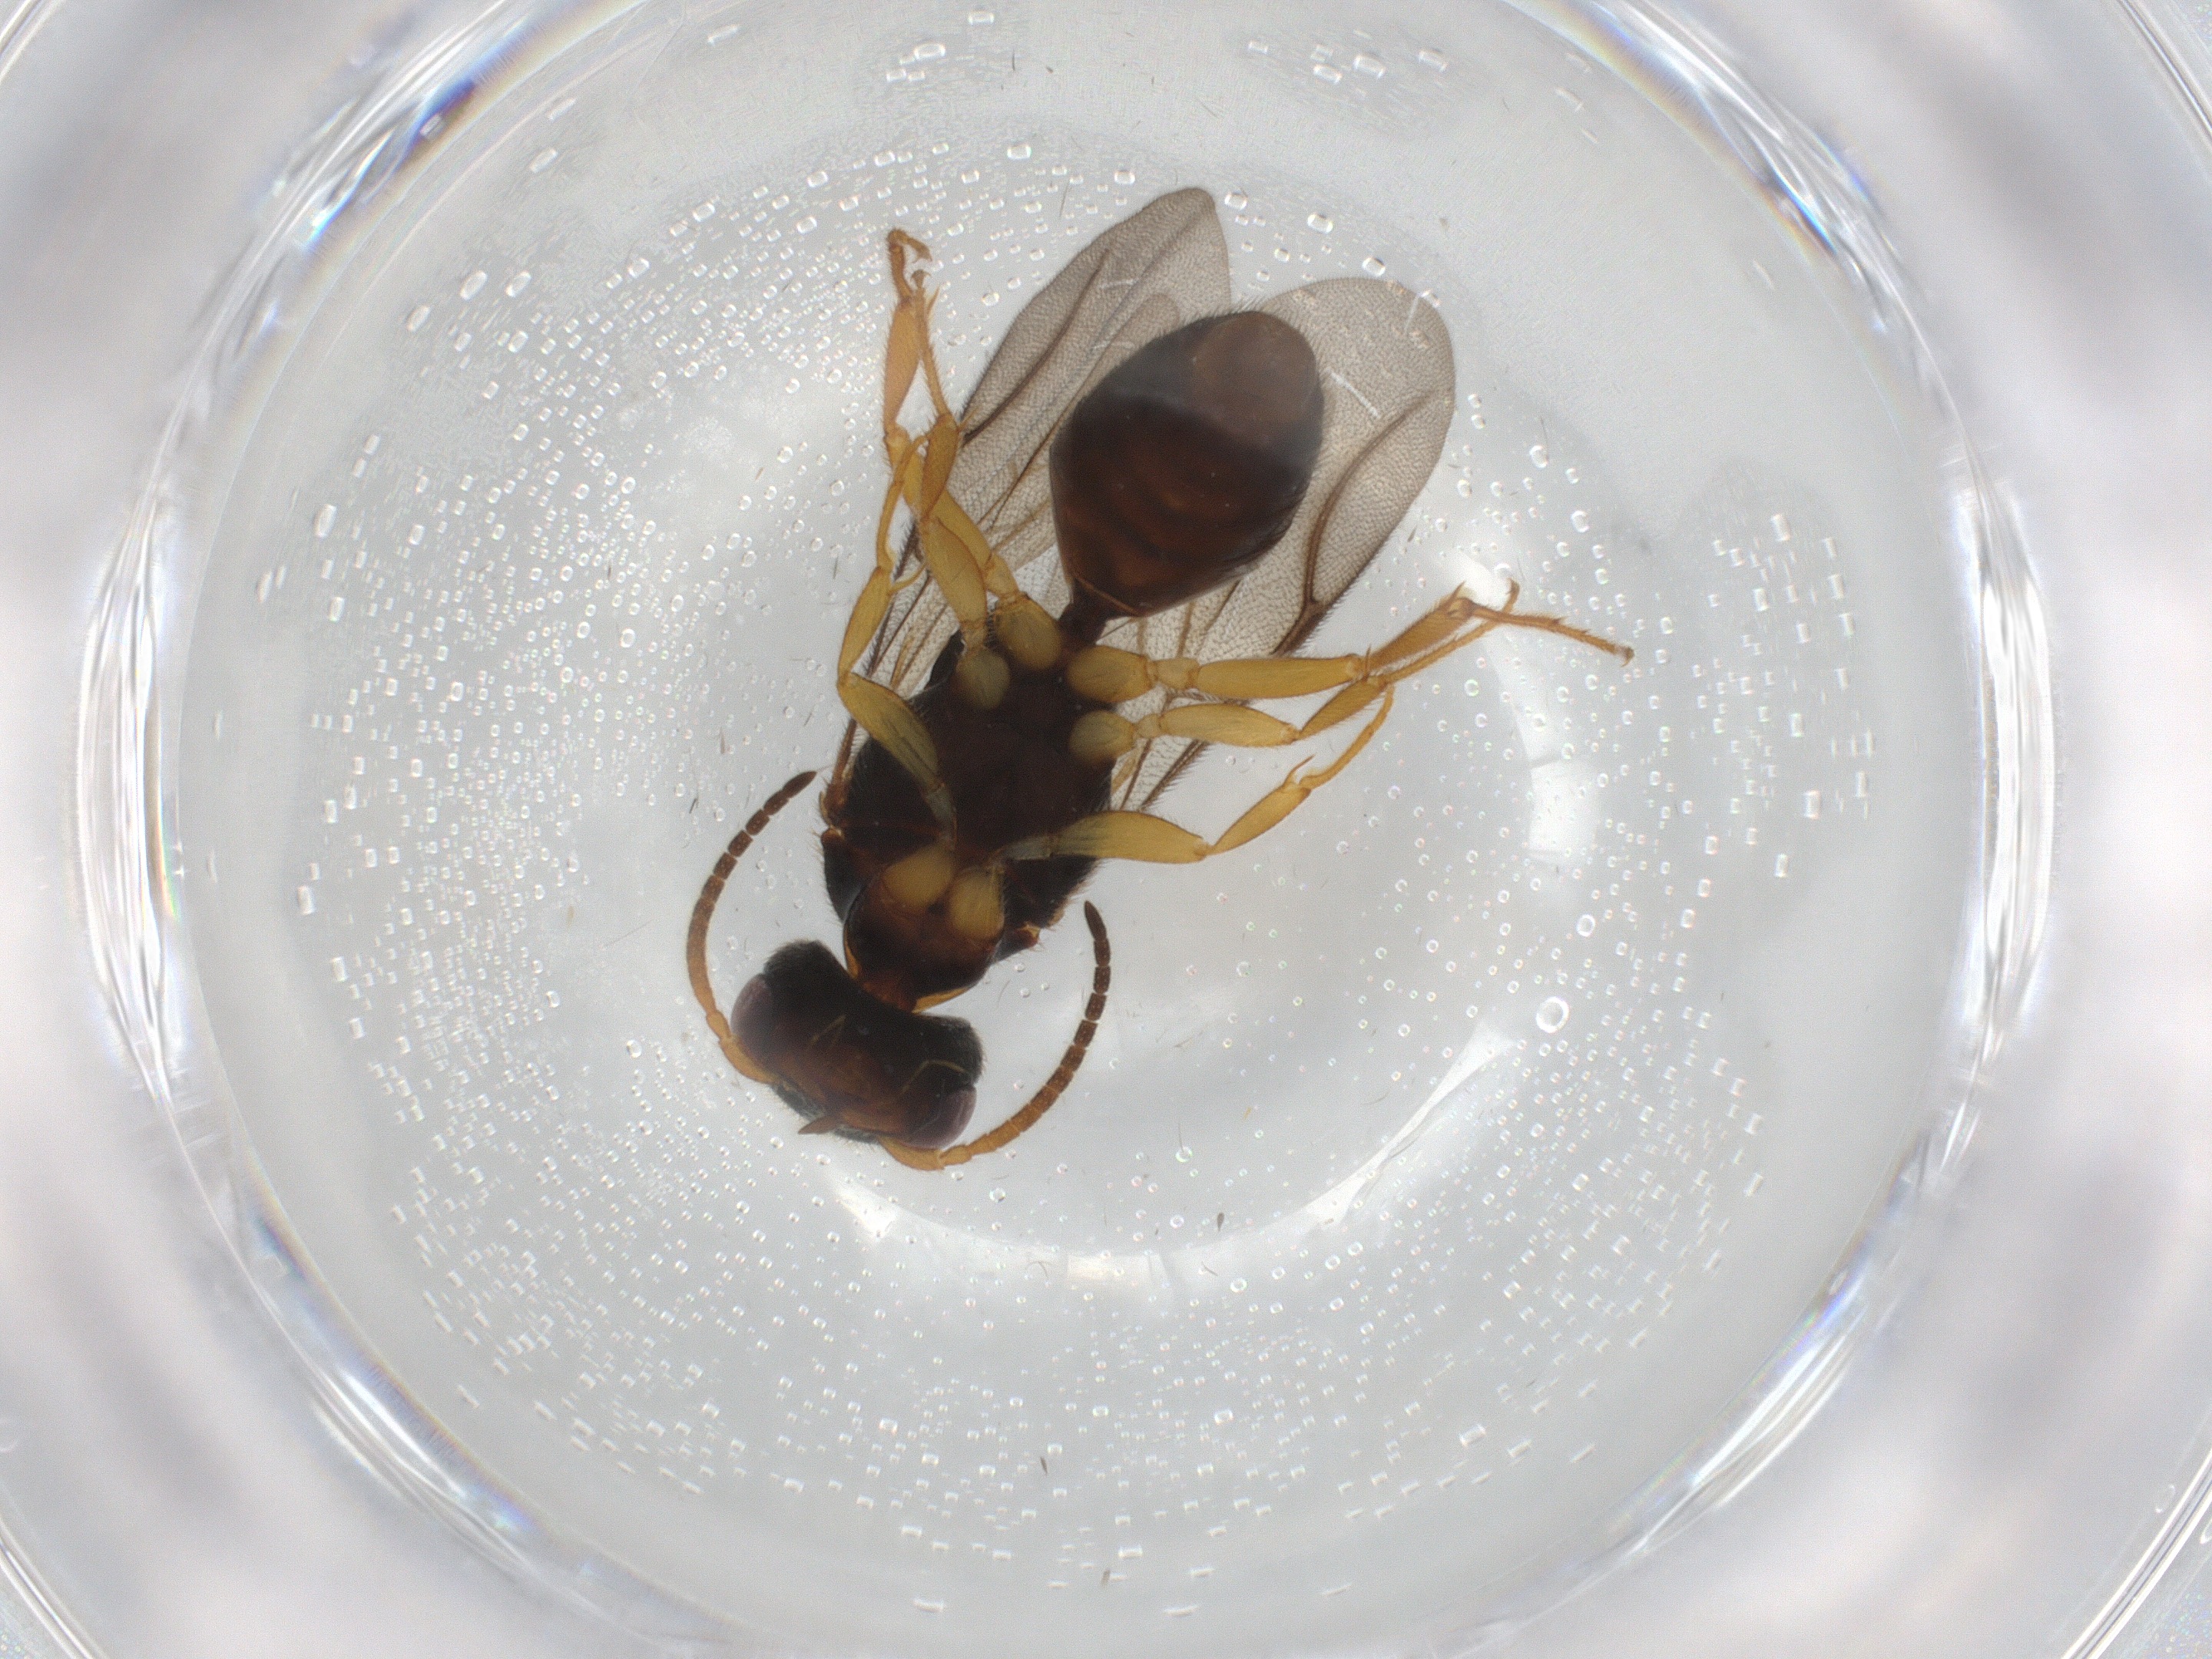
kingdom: Animalia
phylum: Arthropoda
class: Insecta
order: Hymenoptera
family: Bethylidae
